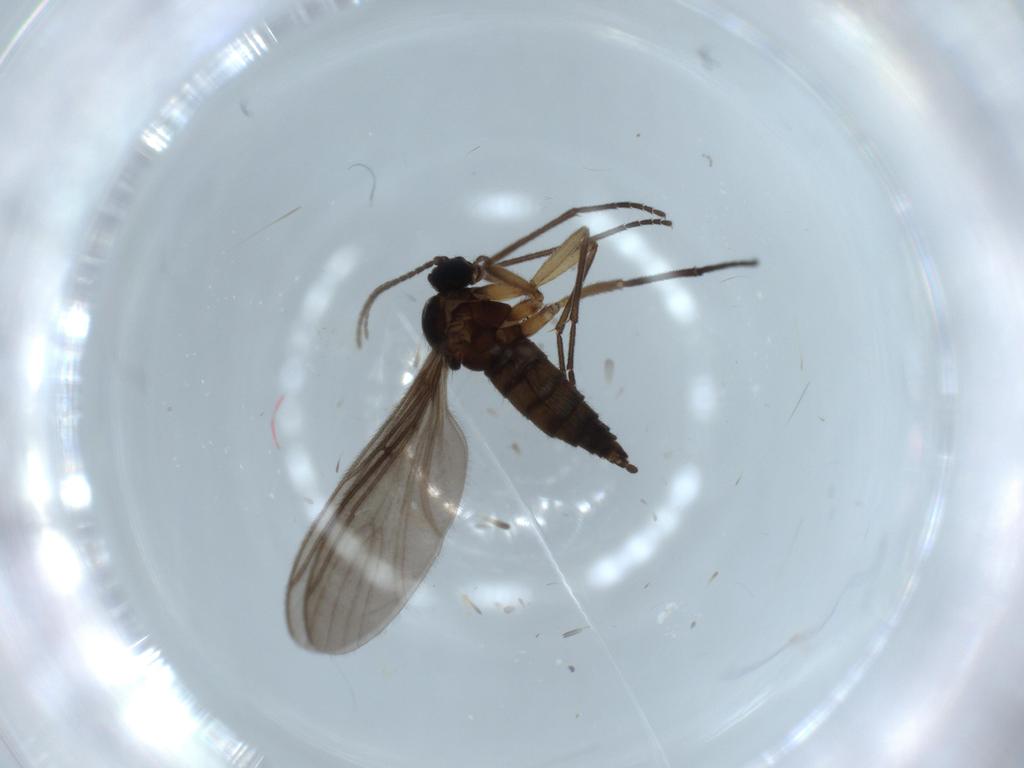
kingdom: Animalia
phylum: Arthropoda
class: Insecta
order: Diptera
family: Sciaridae
